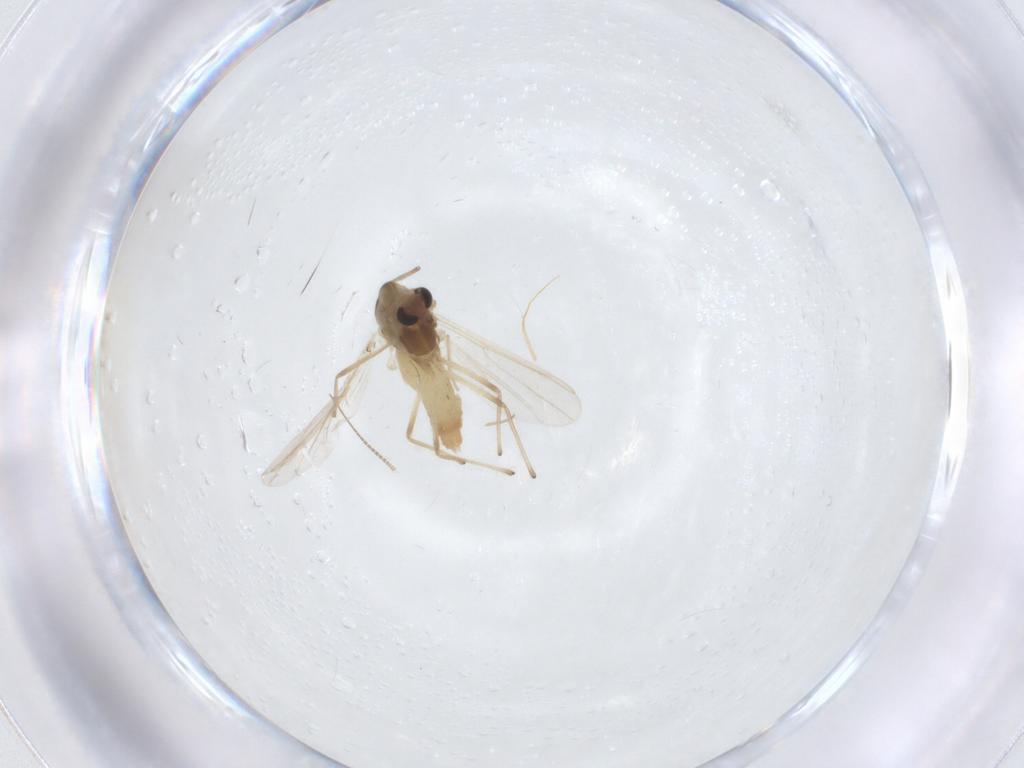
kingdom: Animalia
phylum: Arthropoda
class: Insecta
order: Diptera
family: Chironomidae
